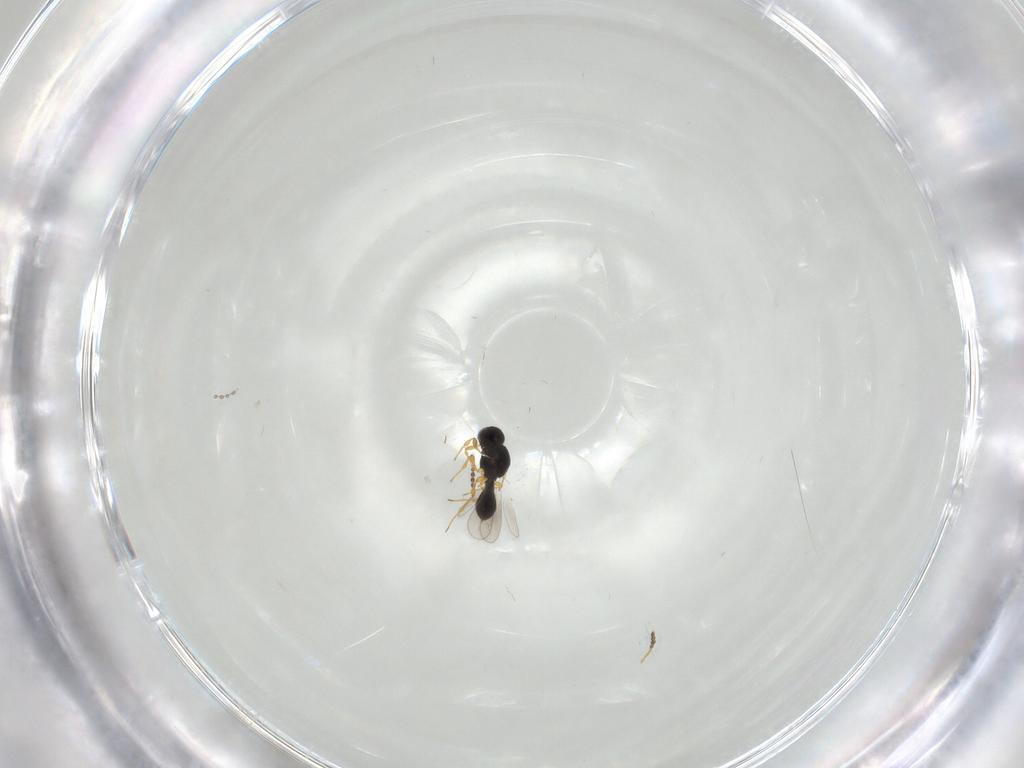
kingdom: Animalia
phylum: Arthropoda
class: Insecta
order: Hymenoptera
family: Platygastridae
